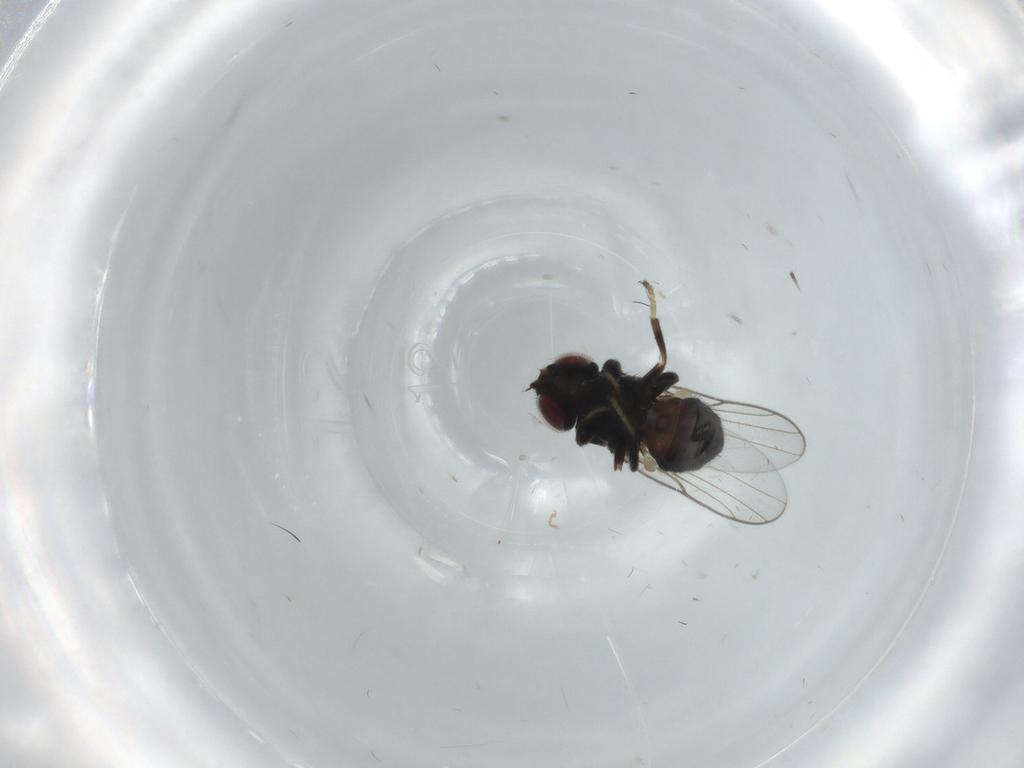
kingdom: Animalia
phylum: Arthropoda
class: Insecta
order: Diptera
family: Chloropidae
